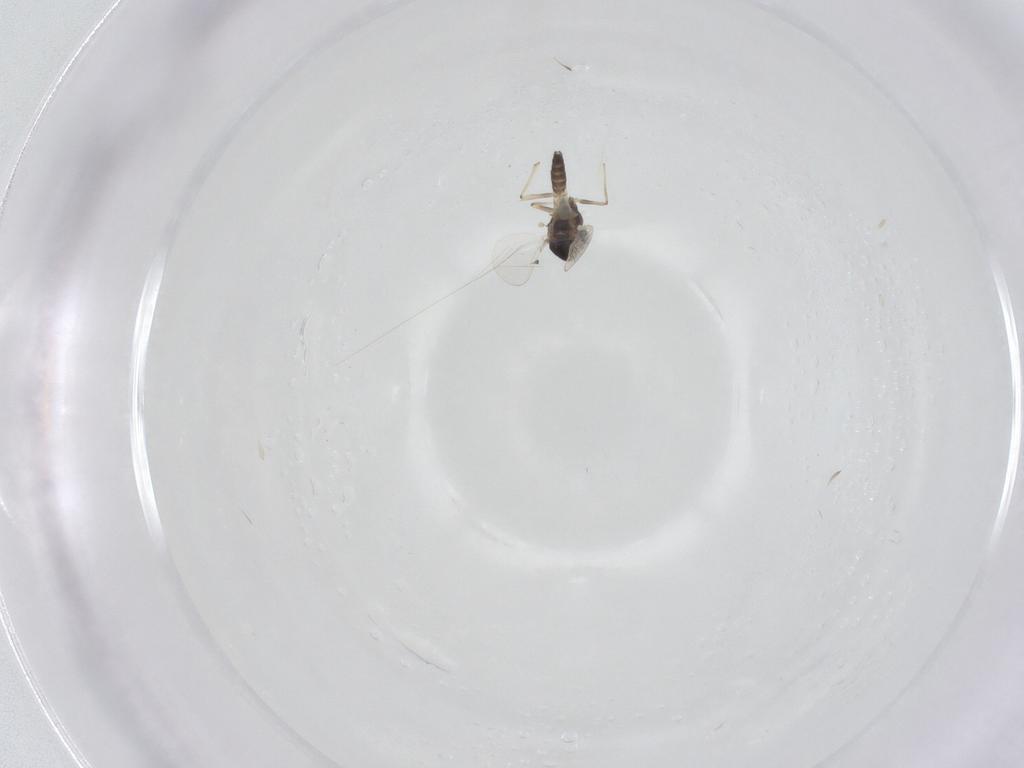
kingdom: Animalia
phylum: Arthropoda
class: Insecta
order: Diptera
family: Chironomidae
